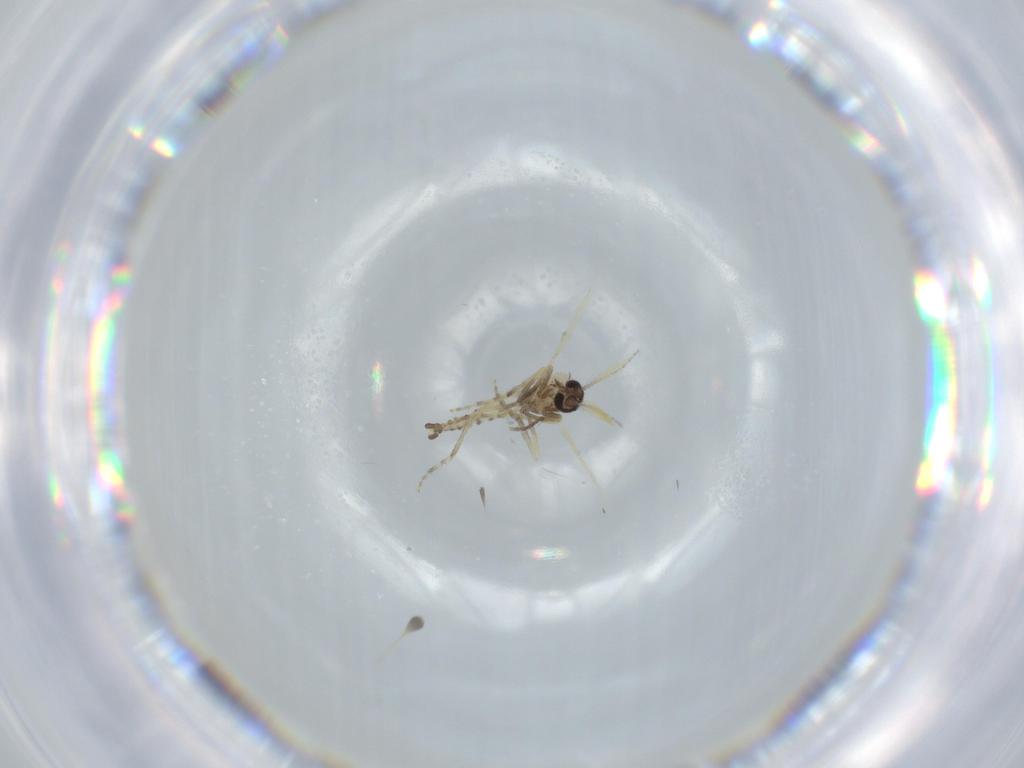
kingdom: Animalia
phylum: Arthropoda
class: Insecta
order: Diptera
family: Ceratopogonidae
